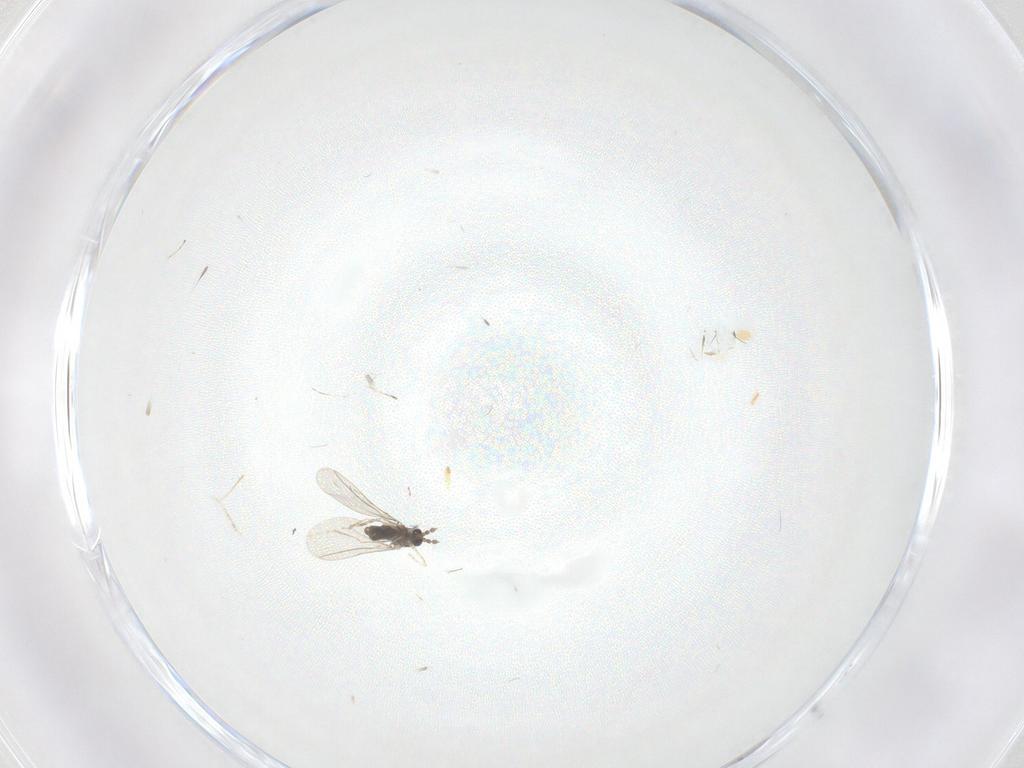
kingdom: Animalia
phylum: Arthropoda
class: Insecta
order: Diptera
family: Cecidomyiidae
